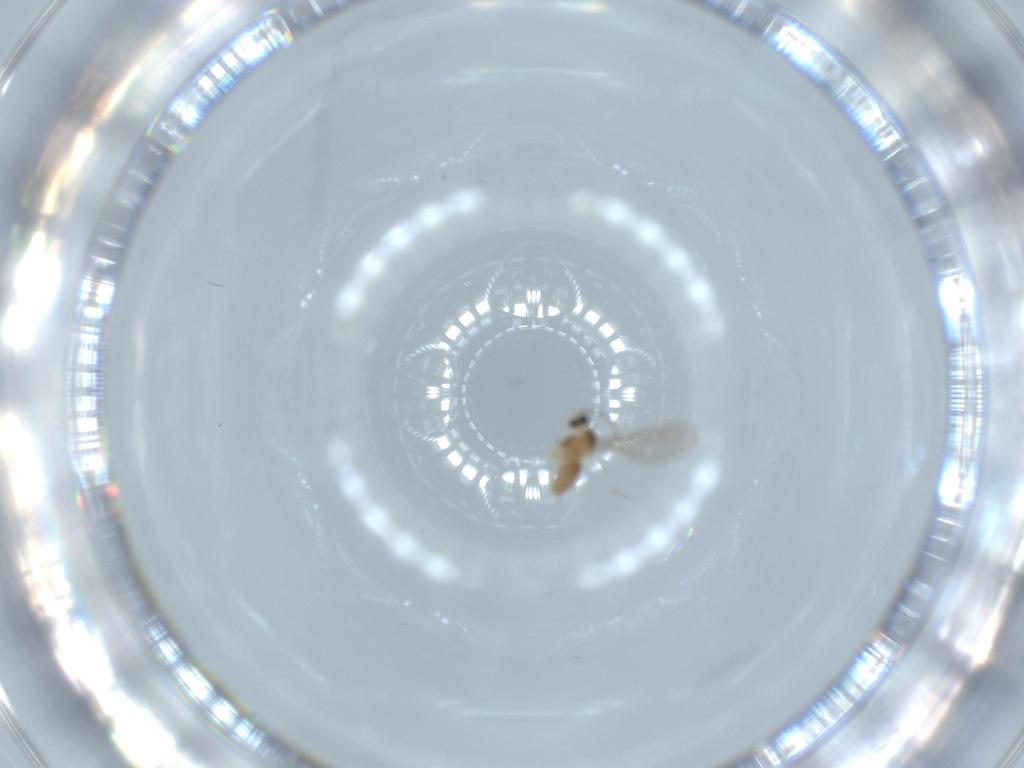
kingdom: Animalia
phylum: Arthropoda
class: Insecta
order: Diptera
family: Cecidomyiidae
